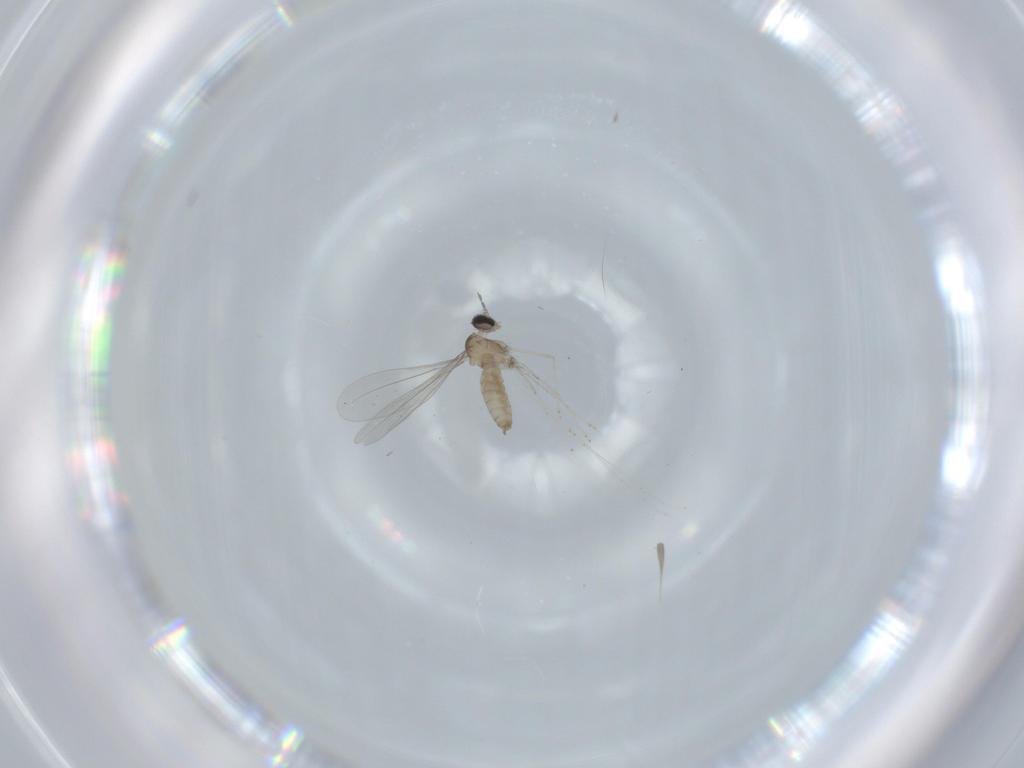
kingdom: Animalia
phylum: Arthropoda
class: Insecta
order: Diptera
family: Cecidomyiidae
